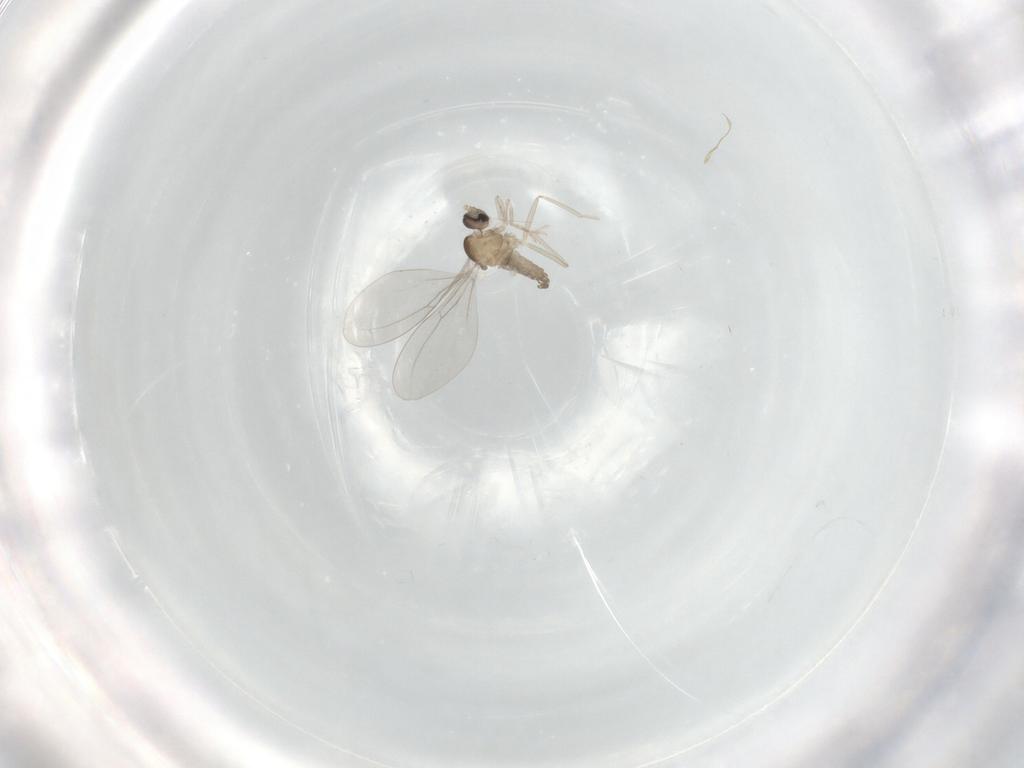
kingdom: Animalia
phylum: Arthropoda
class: Insecta
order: Diptera
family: Cecidomyiidae
